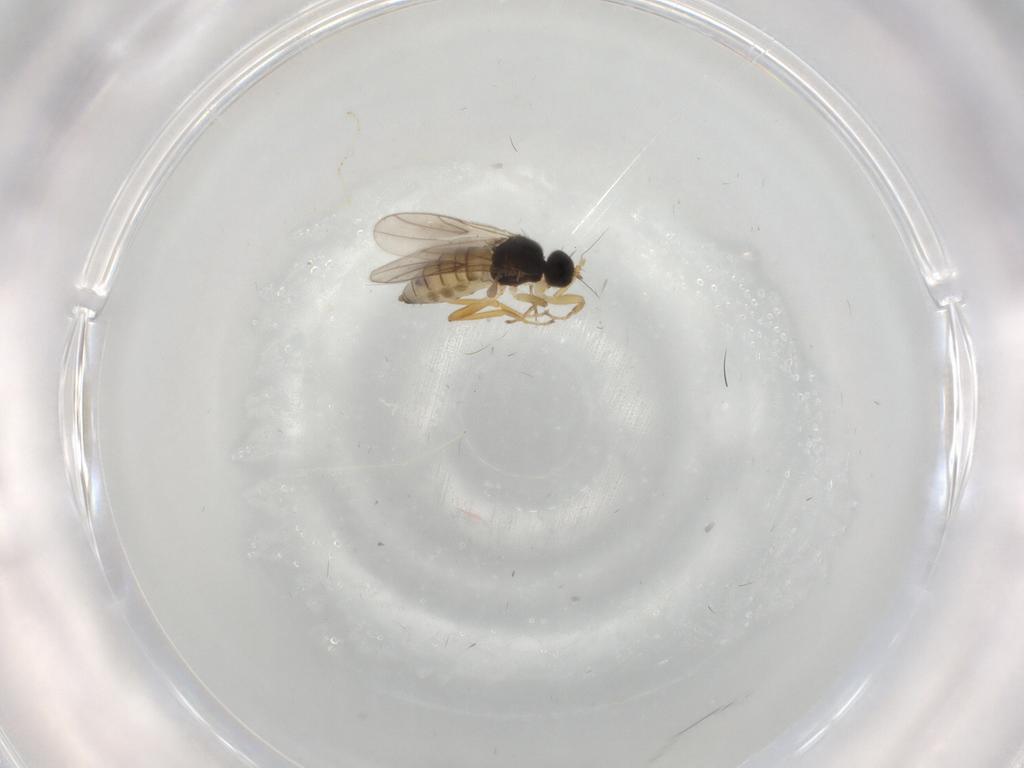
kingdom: Animalia
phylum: Arthropoda
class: Insecta
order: Diptera
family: Hybotidae
